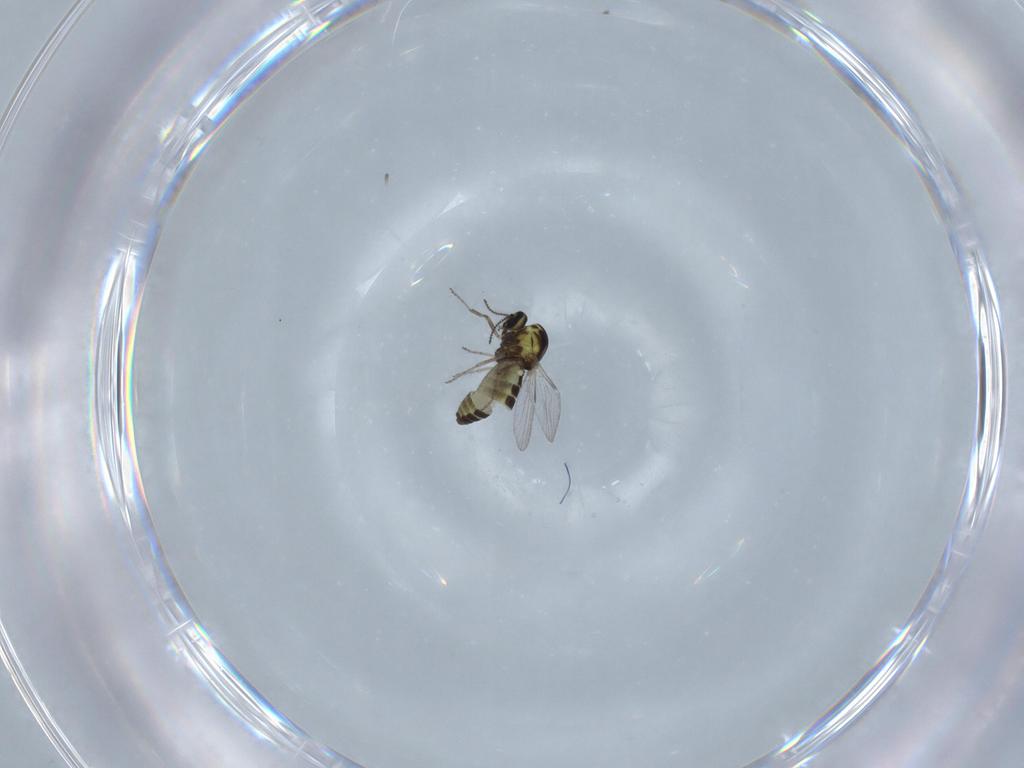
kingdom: Animalia
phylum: Arthropoda
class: Insecta
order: Diptera
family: Ceratopogonidae
